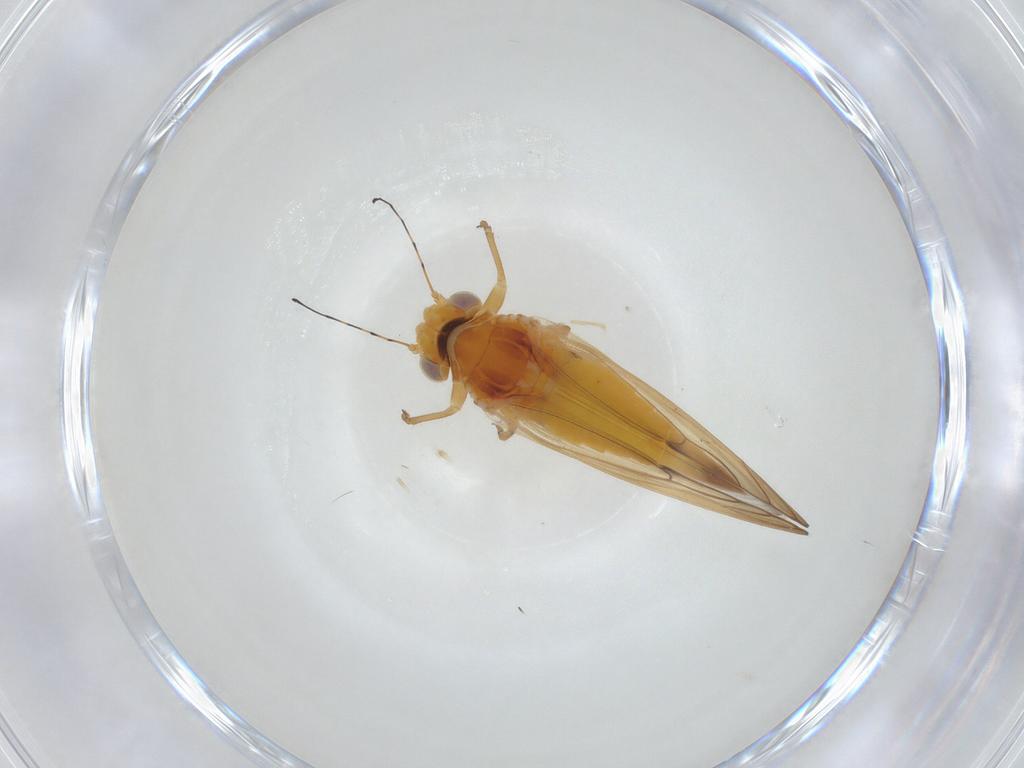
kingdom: Animalia
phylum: Arthropoda
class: Insecta
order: Hemiptera
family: Psylloidea_incertae_sedis
